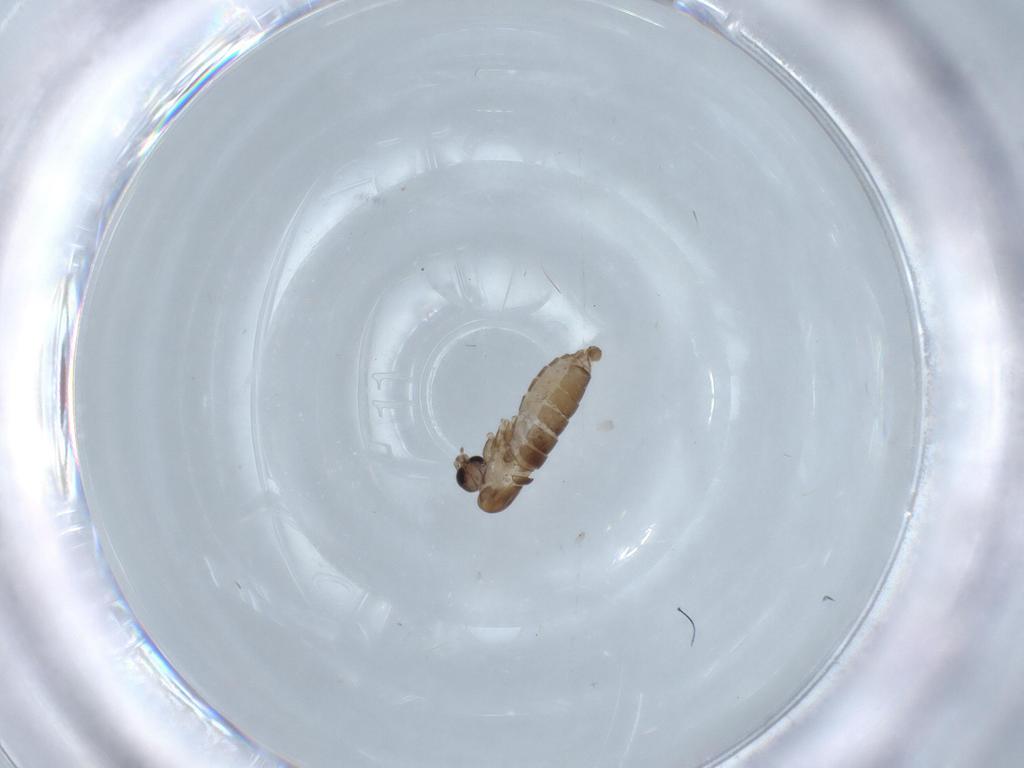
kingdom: Animalia
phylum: Arthropoda
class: Insecta
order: Diptera
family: Psychodidae
